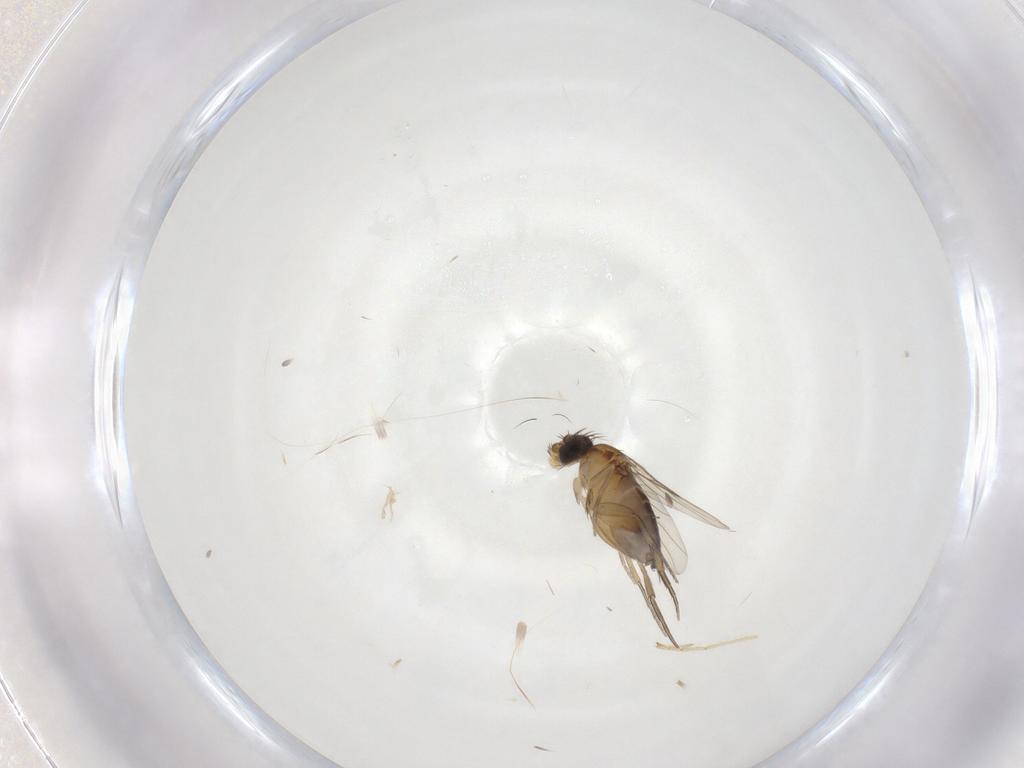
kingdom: Animalia
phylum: Arthropoda
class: Insecta
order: Diptera
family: Phoridae
